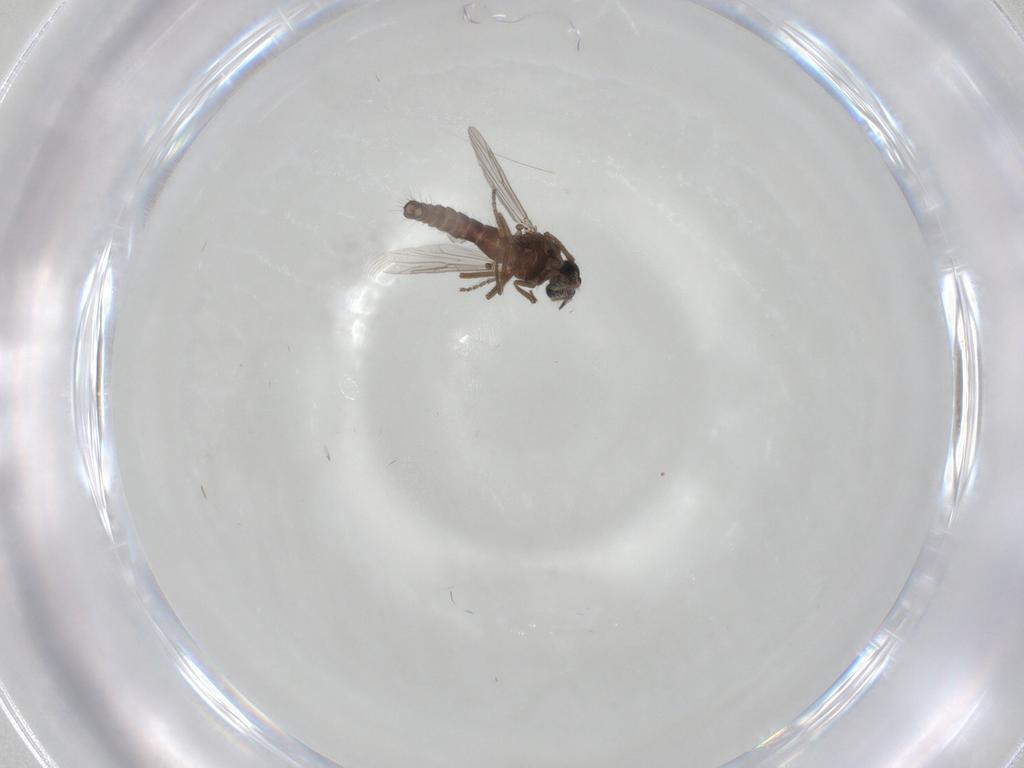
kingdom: Animalia
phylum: Arthropoda
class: Insecta
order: Diptera
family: Ceratopogonidae
